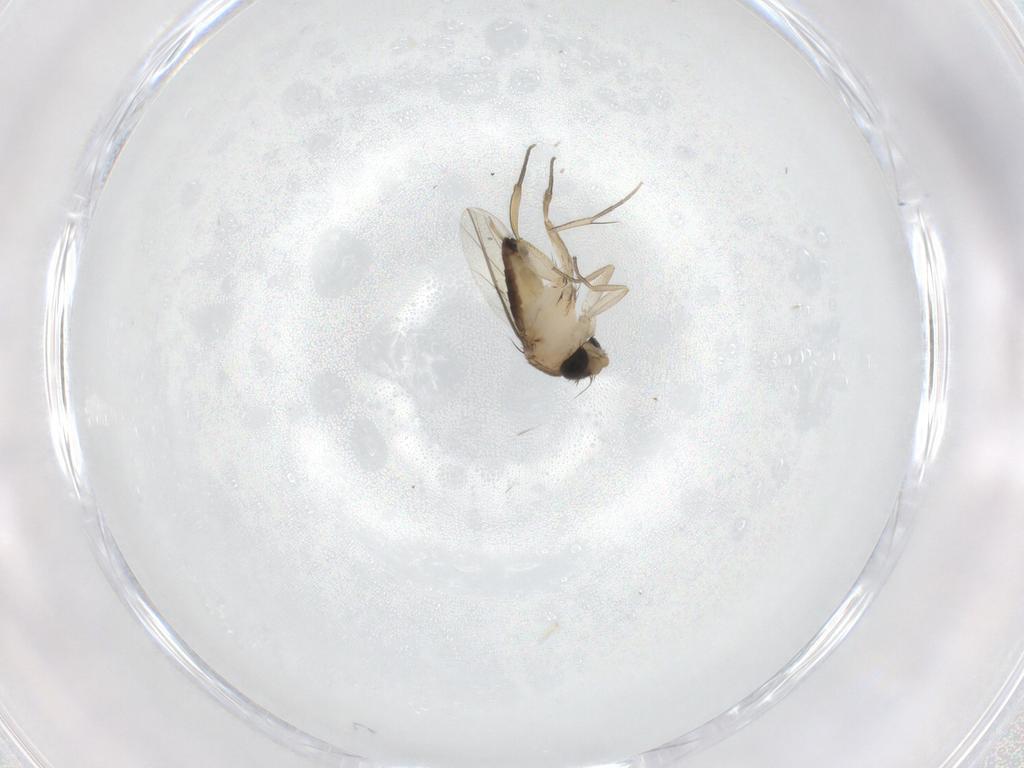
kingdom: Animalia
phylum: Arthropoda
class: Insecta
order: Diptera
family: Phoridae
